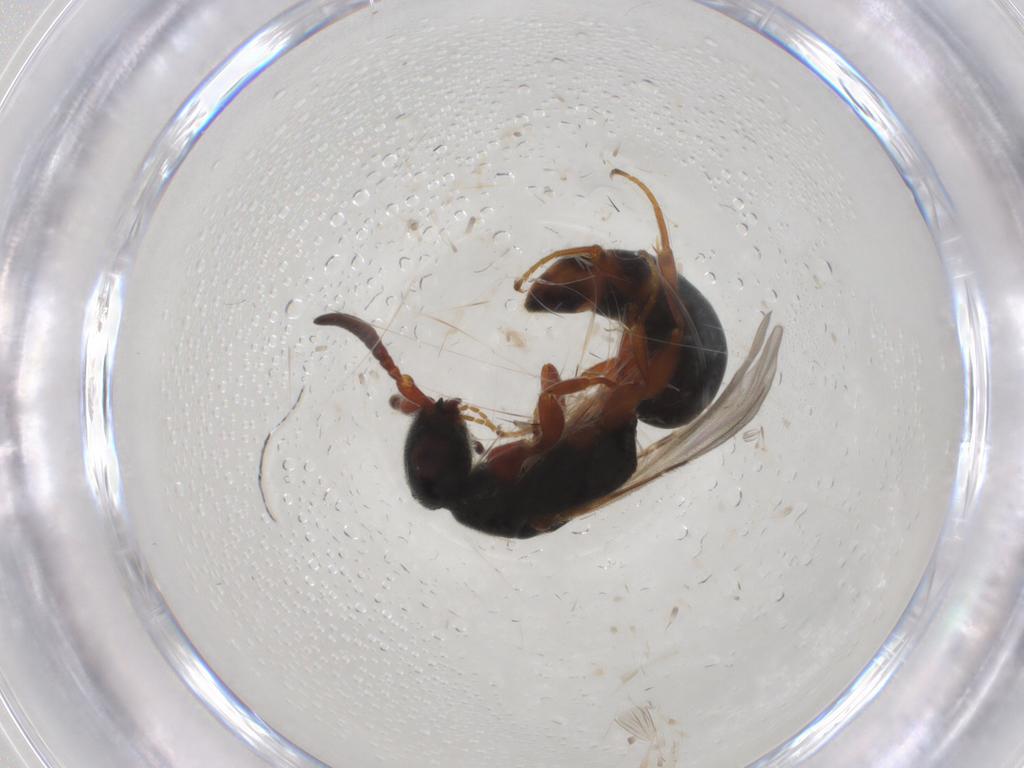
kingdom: Animalia
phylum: Arthropoda
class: Insecta
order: Hymenoptera
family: Bethylidae
